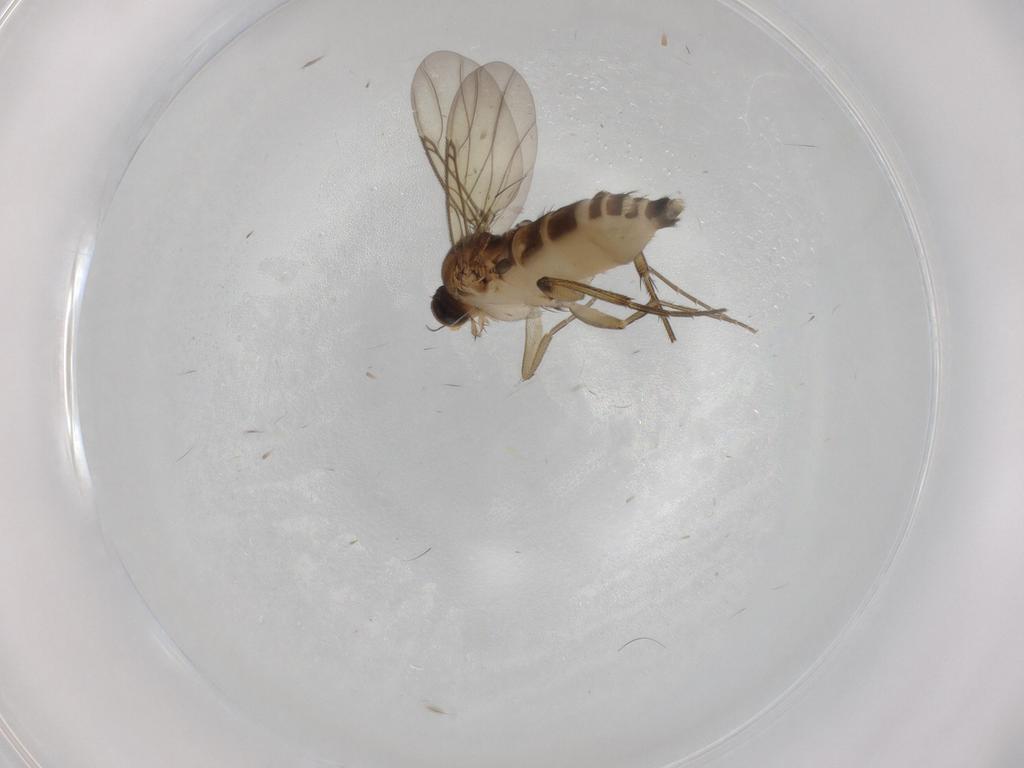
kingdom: Animalia
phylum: Arthropoda
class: Insecta
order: Diptera
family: Phoridae
